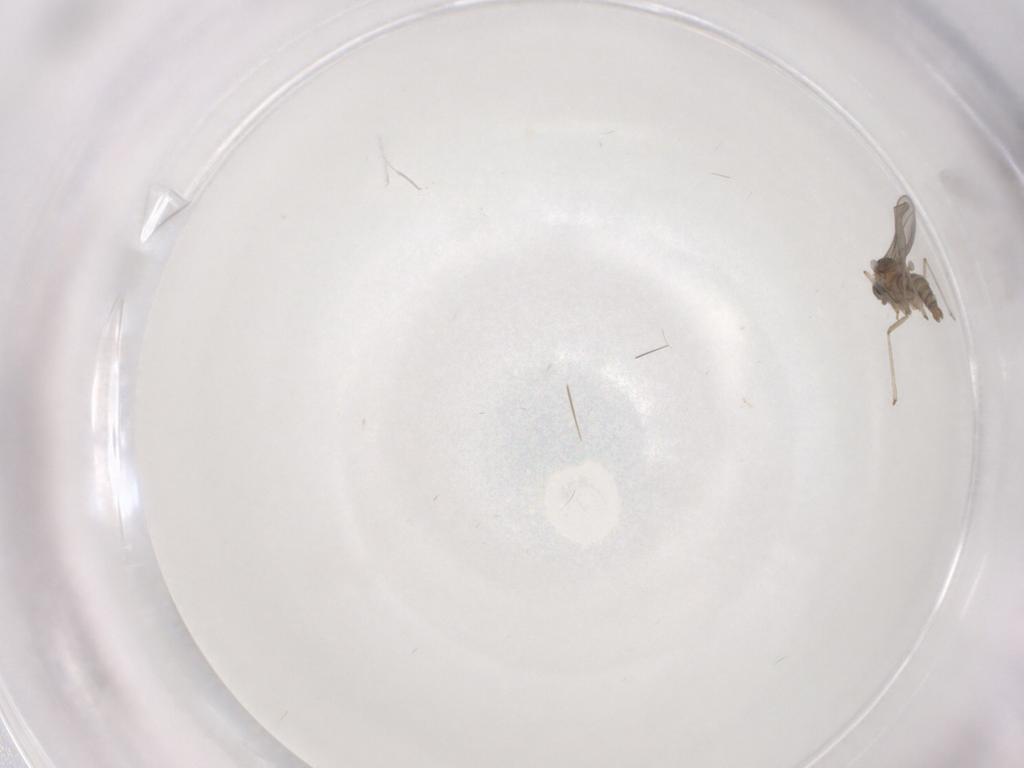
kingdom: Animalia
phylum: Arthropoda
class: Insecta
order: Diptera
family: Cecidomyiidae
